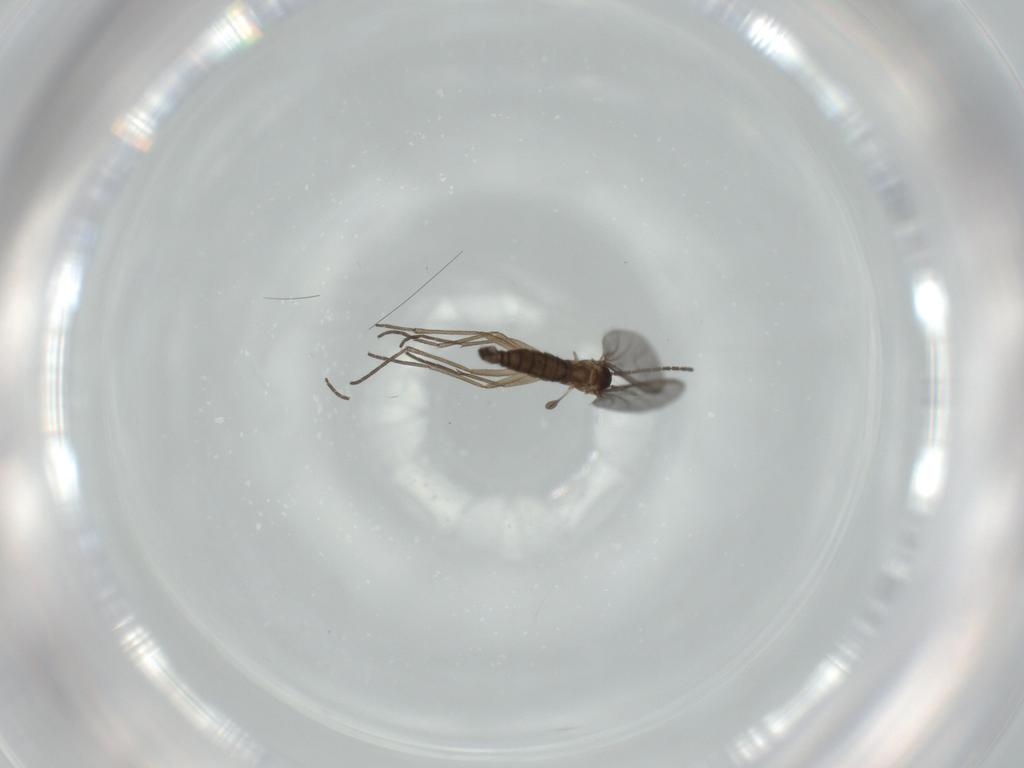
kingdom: Animalia
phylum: Arthropoda
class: Insecta
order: Diptera
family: Sciaridae
